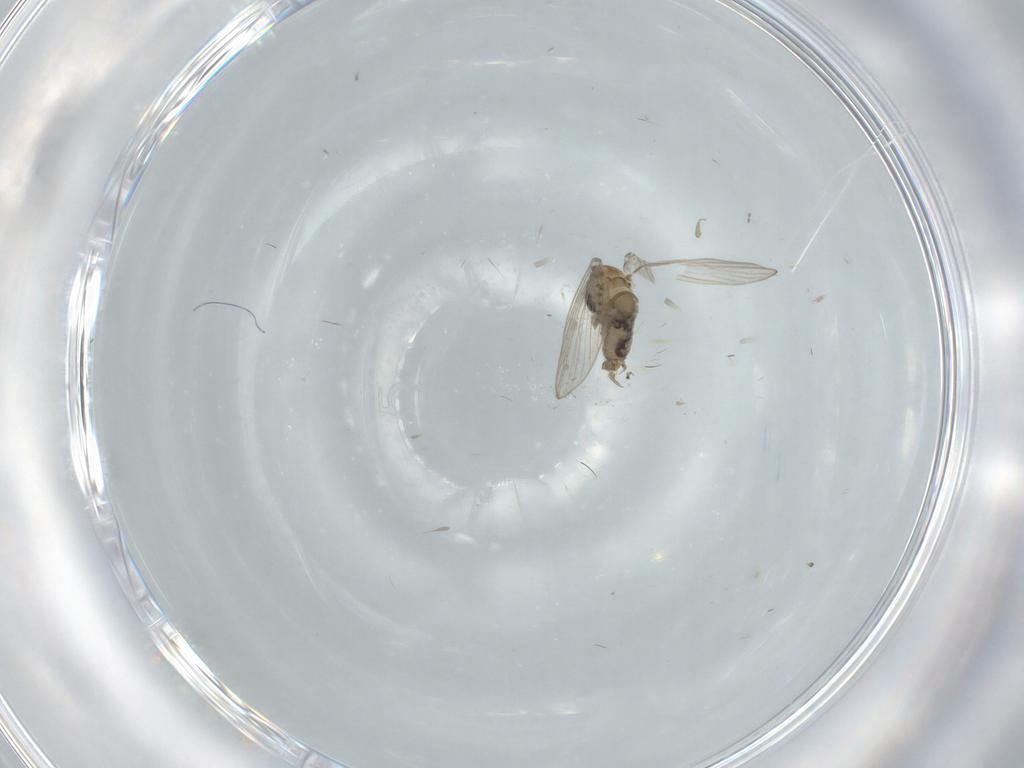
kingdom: Animalia
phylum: Arthropoda
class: Insecta
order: Diptera
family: Psychodidae
